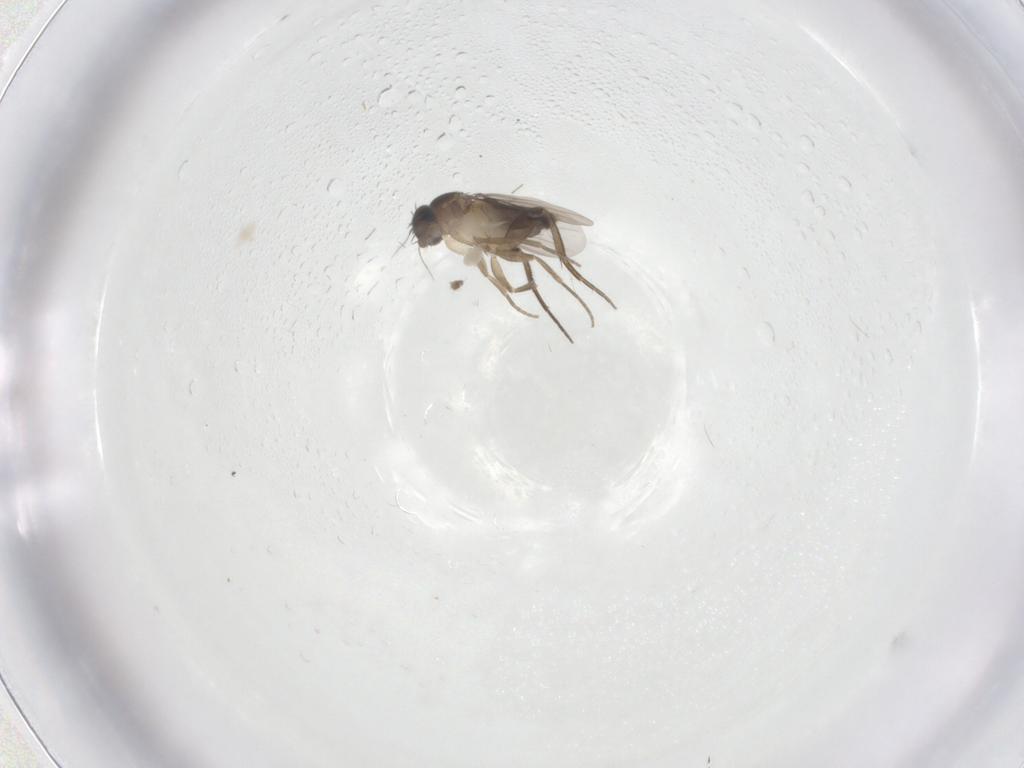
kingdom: Animalia
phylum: Arthropoda
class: Insecta
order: Diptera
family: Phoridae
